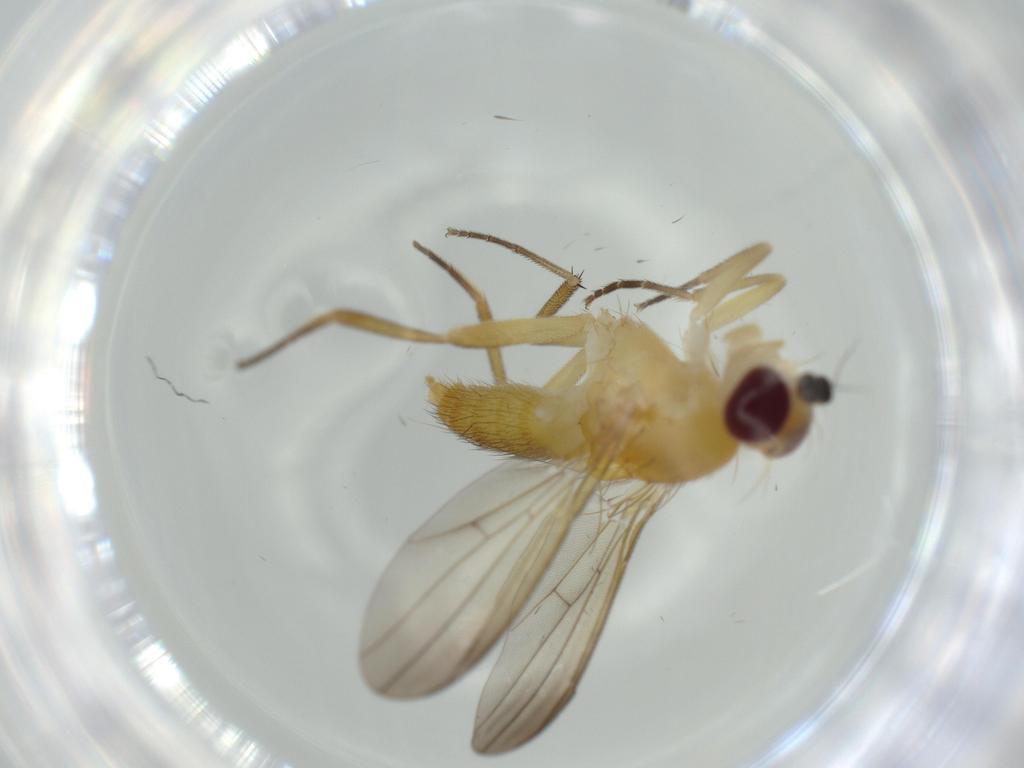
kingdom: Animalia
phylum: Arthropoda
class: Insecta
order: Diptera
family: Clusiidae
